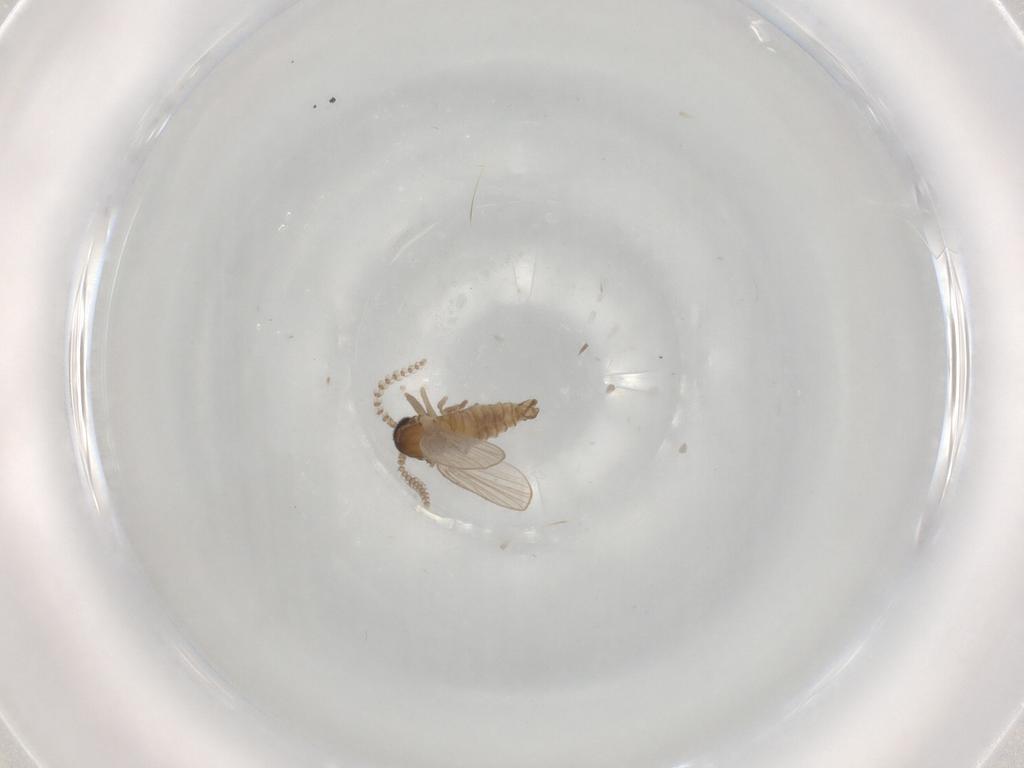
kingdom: Animalia
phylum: Arthropoda
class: Insecta
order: Diptera
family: Psychodidae
